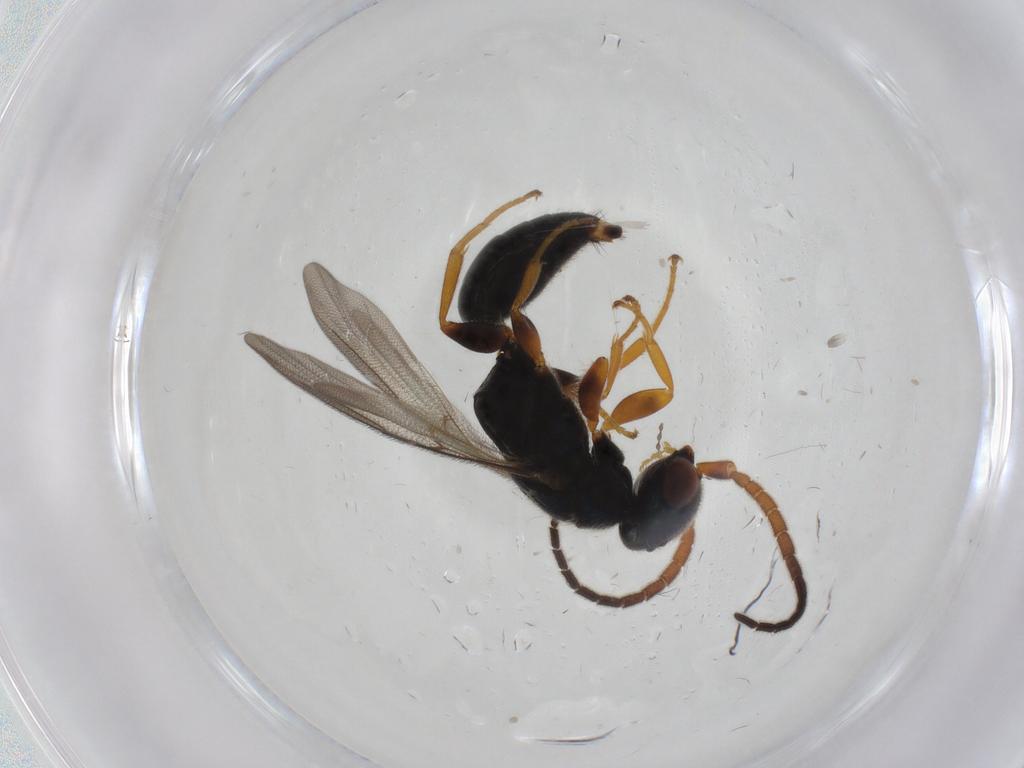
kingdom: Animalia
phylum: Arthropoda
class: Insecta
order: Hymenoptera
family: Bethylidae
